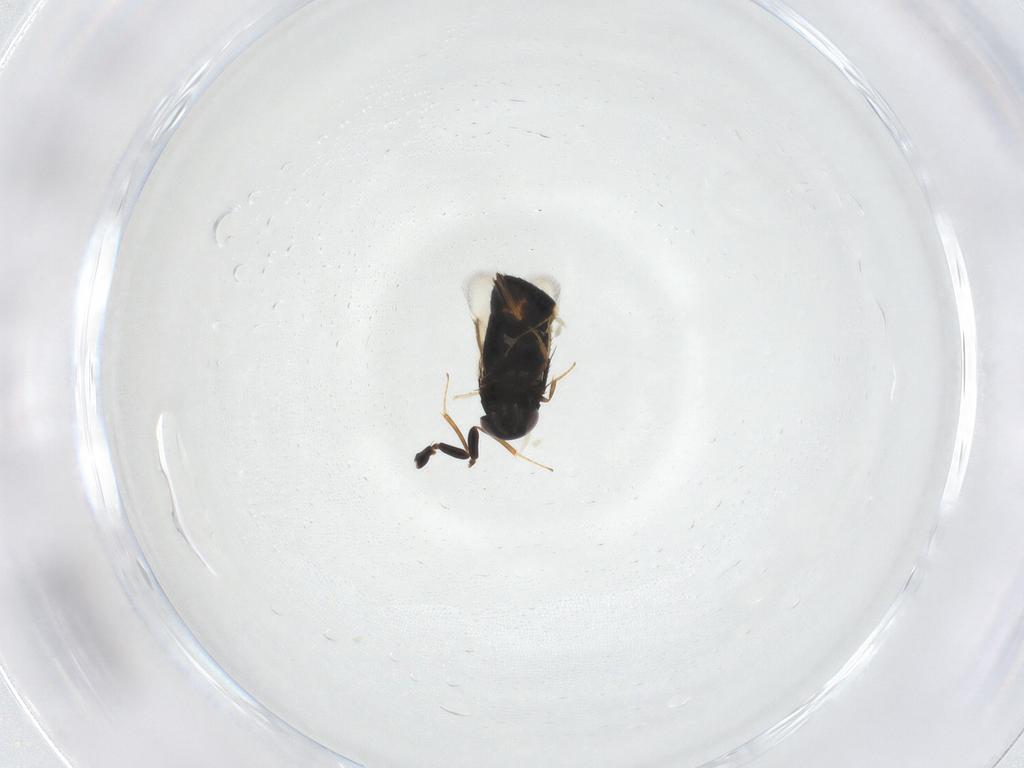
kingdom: Animalia
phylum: Arthropoda
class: Insecta
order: Hymenoptera
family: Signiphoridae
